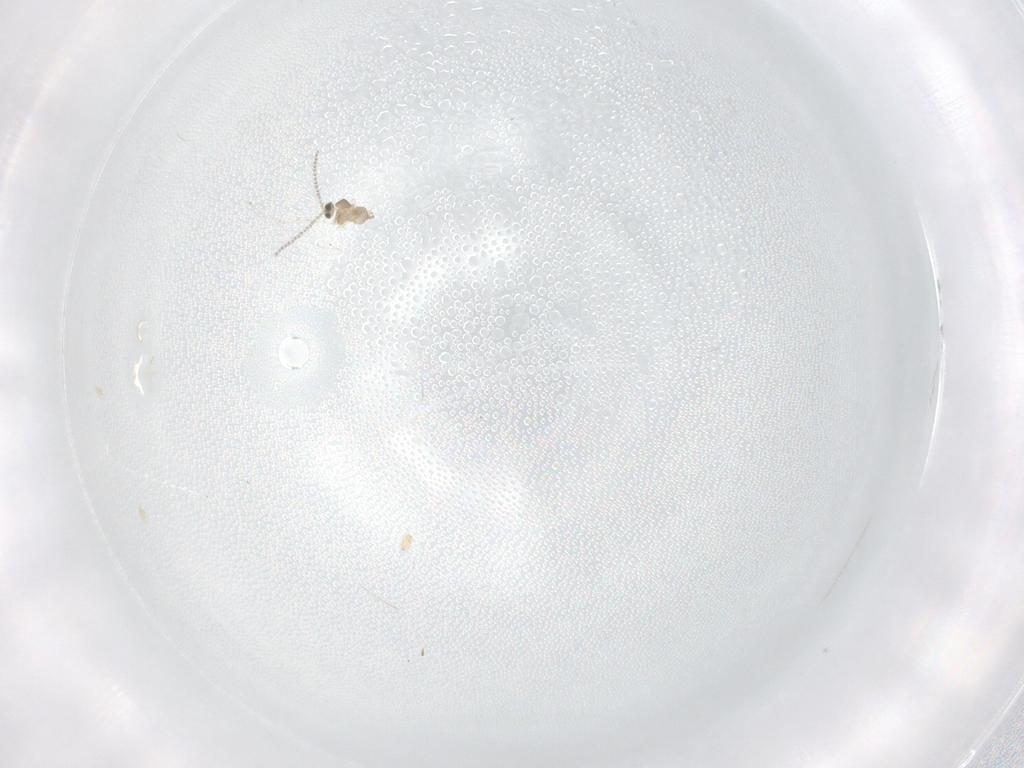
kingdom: Animalia
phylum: Arthropoda
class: Insecta
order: Diptera
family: Cecidomyiidae
